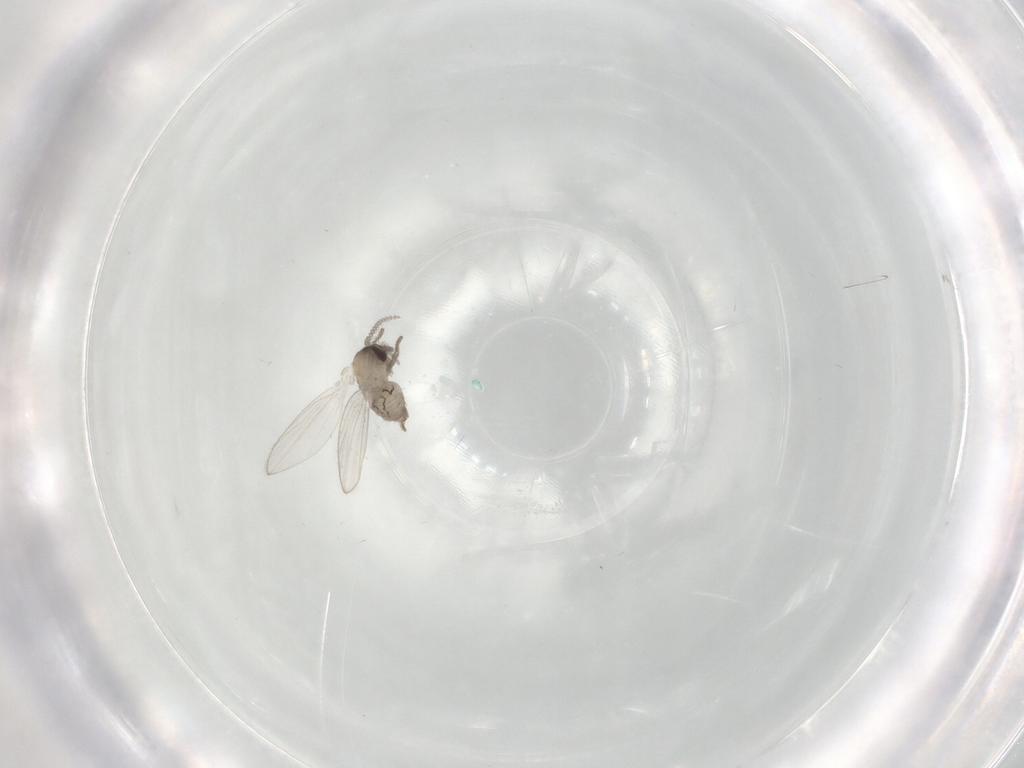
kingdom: Animalia
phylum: Arthropoda
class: Insecta
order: Diptera
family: Psychodidae
